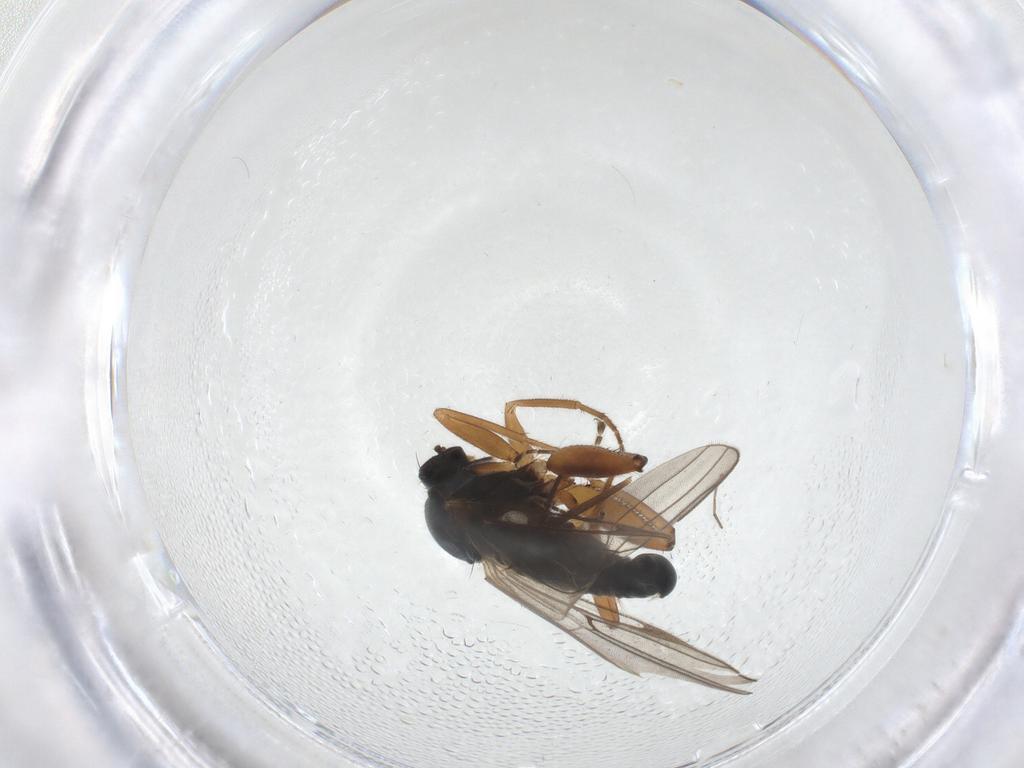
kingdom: Animalia
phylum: Arthropoda
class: Insecta
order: Diptera
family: Hybotidae
